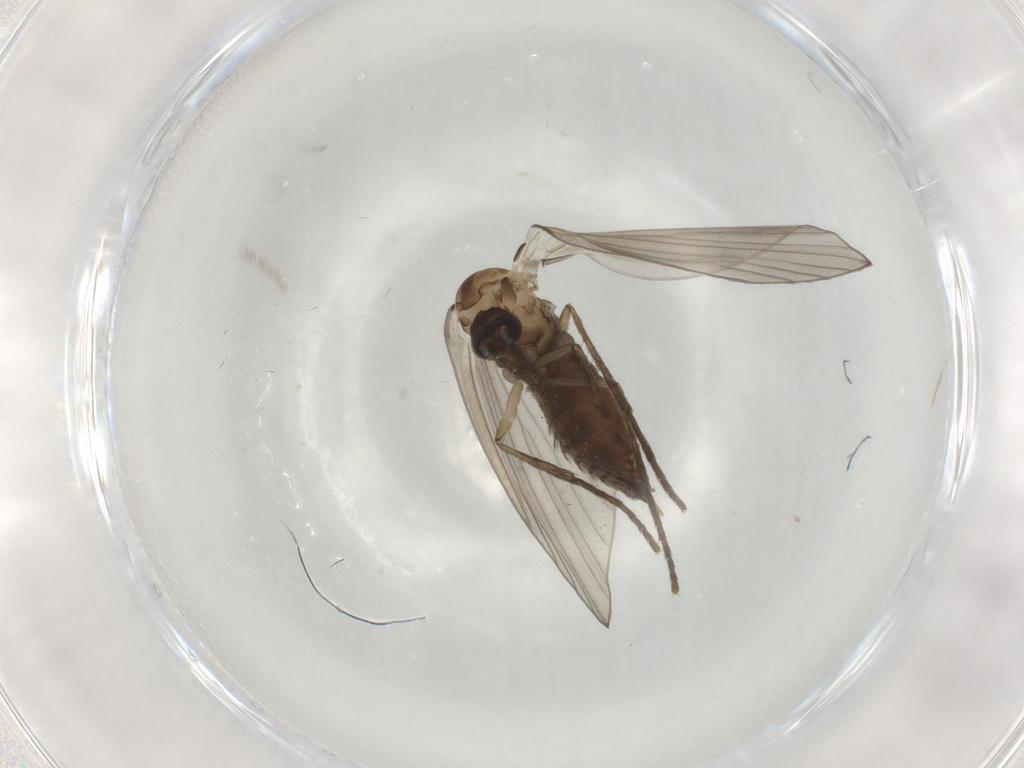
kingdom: Animalia
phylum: Arthropoda
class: Insecta
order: Diptera
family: Psychodidae
